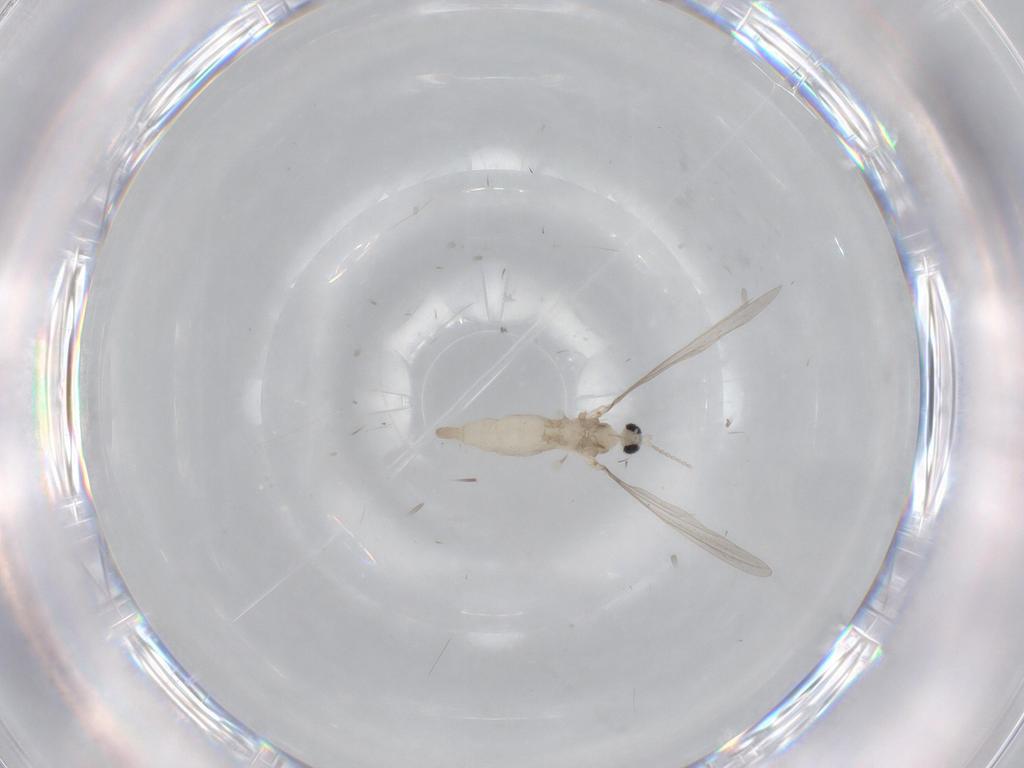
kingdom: Animalia
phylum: Arthropoda
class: Insecta
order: Diptera
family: Cecidomyiidae
